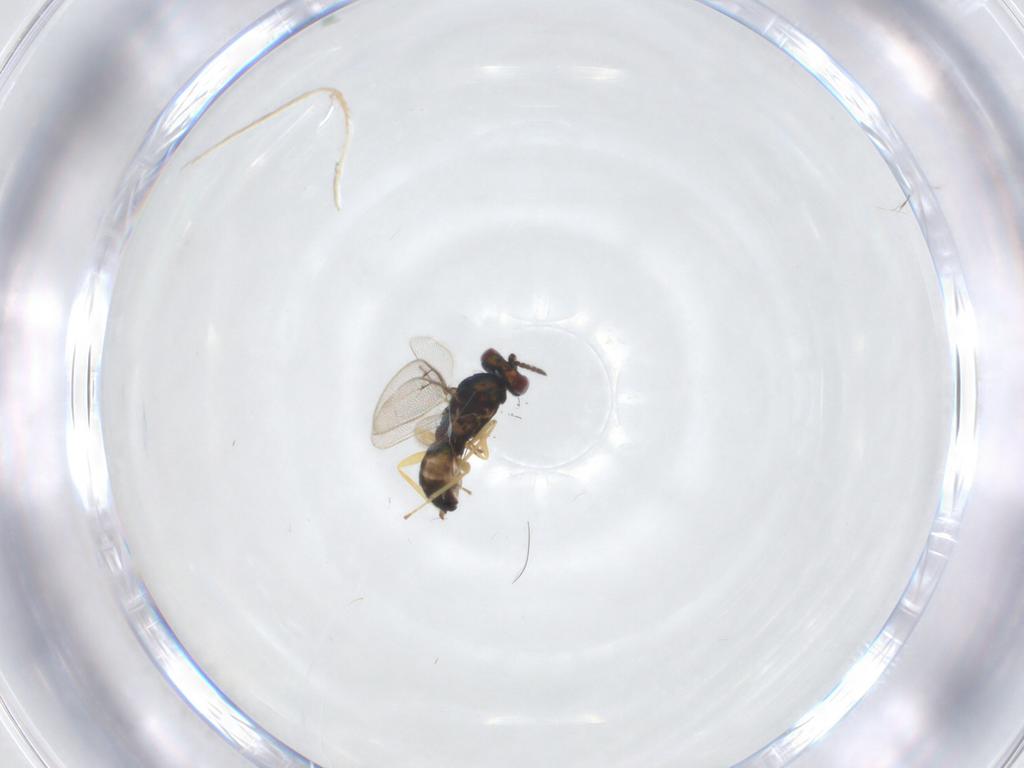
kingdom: Animalia
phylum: Arthropoda
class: Insecta
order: Hymenoptera
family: Eulophidae
